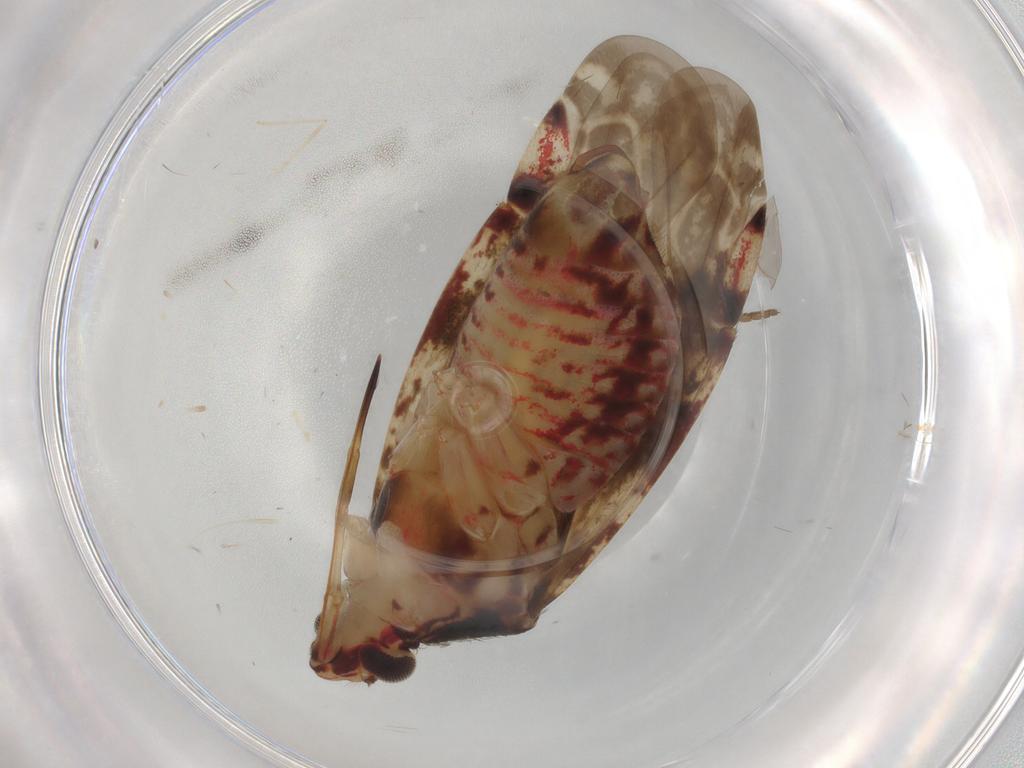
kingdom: Animalia
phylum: Arthropoda
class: Insecta
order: Hemiptera
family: Miridae
